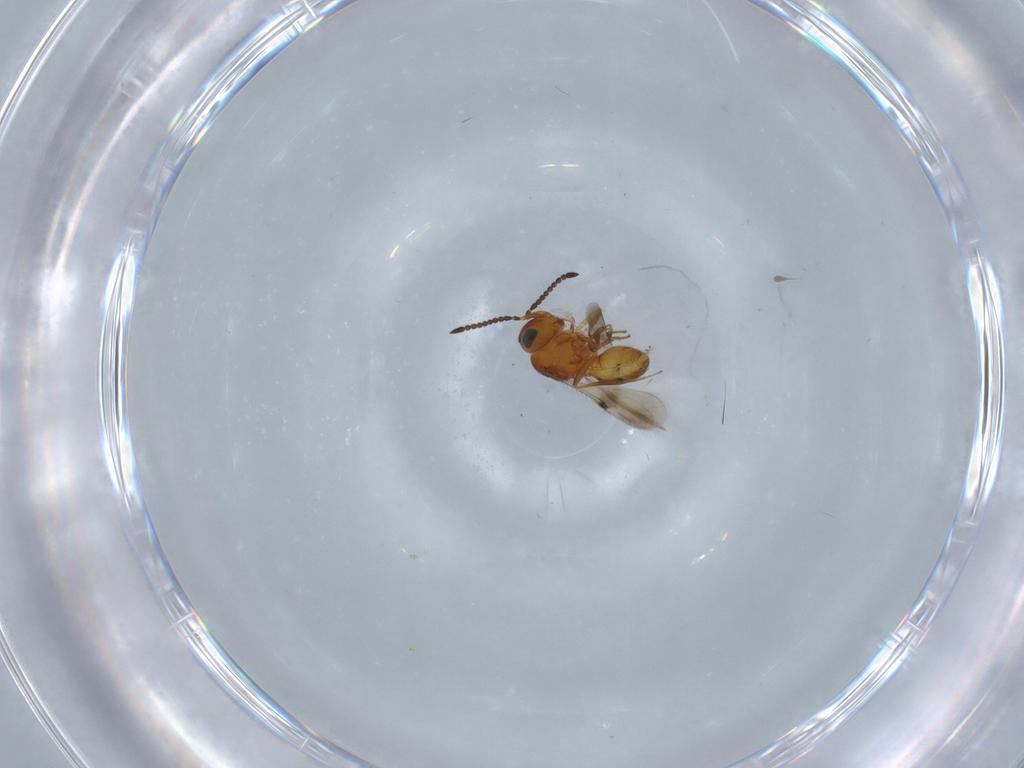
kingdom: Animalia
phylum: Arthropoda
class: Insecta
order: Hymenoptera
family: Scelionidae
